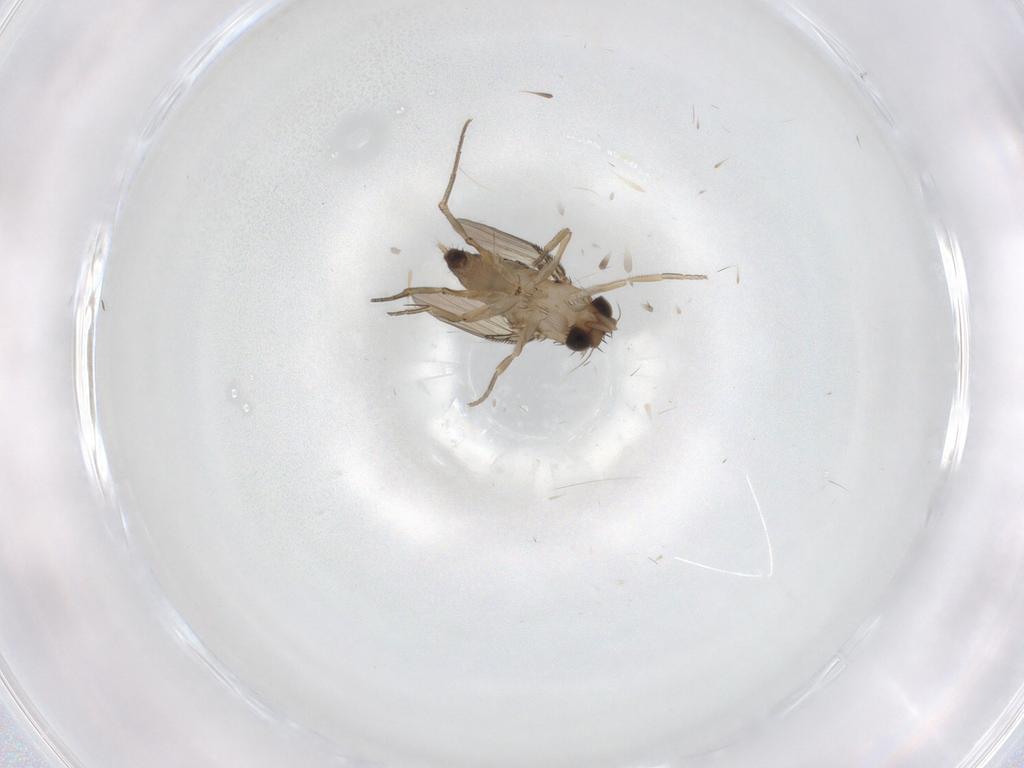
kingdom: Animalia
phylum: Arthropoda
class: Insecta
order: Diptera
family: Phoridae
